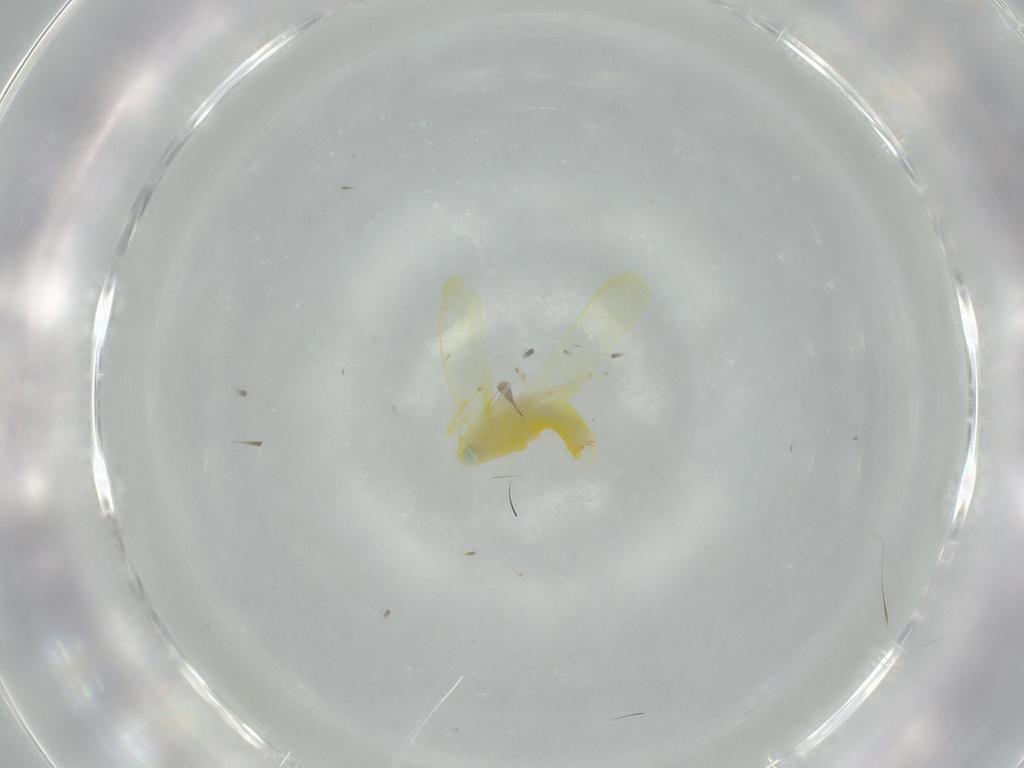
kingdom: Animalia
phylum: Arthropoda
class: Insecta
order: Hemiptera
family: Cicadellidae
